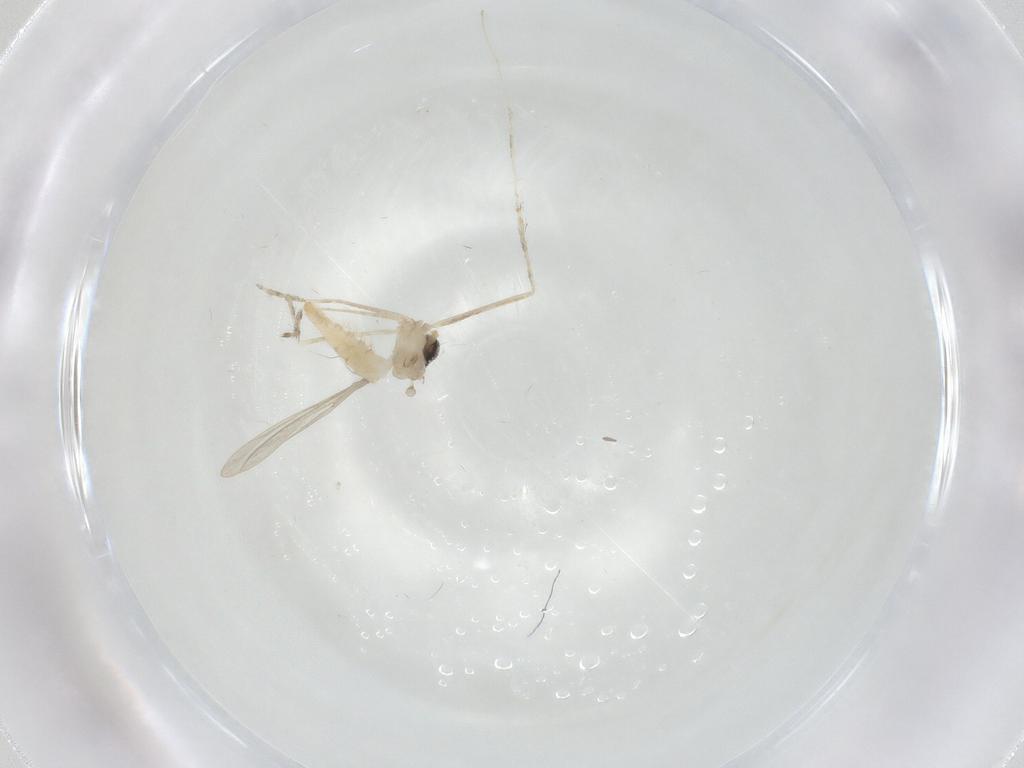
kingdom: Animalia
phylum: Arthropoda
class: Insecta
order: Diptera
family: Cecidomyiidae
